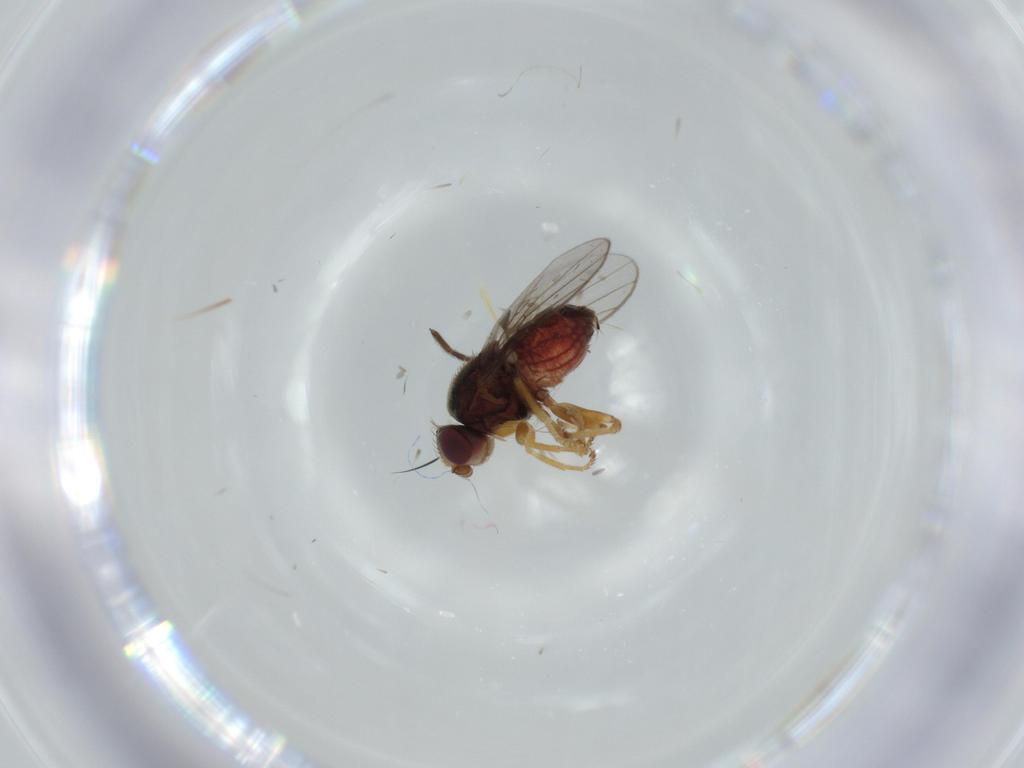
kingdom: Animalia
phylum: Arthropoda
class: Insecta
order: Diptera
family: Chloropidae
